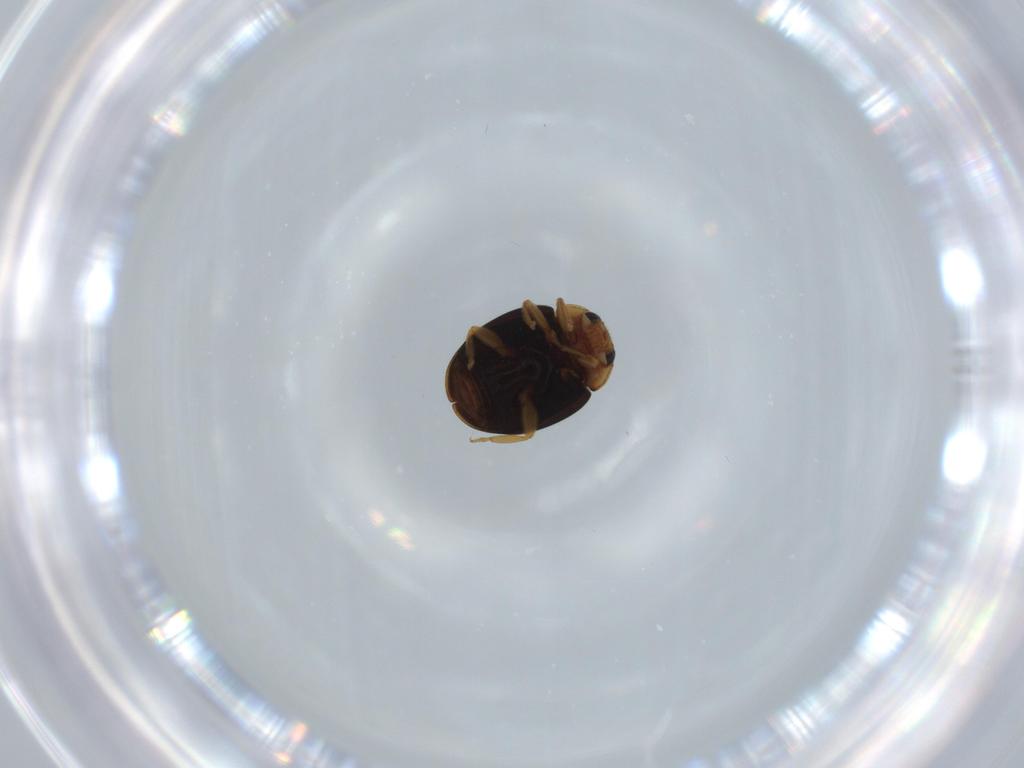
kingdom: Animalia
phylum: Arthropoda
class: Insecta
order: Coleoptera
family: Coccinellidae
